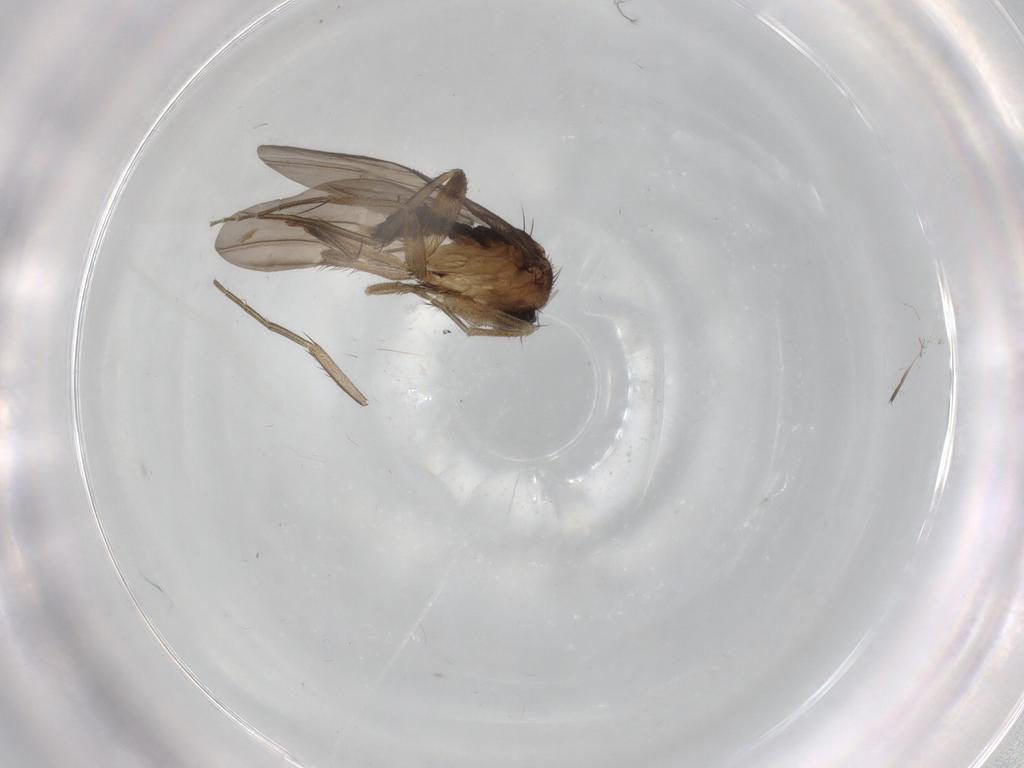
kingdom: Animalia
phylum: Arthropoda
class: Insecta
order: Diptera
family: Phoridae
